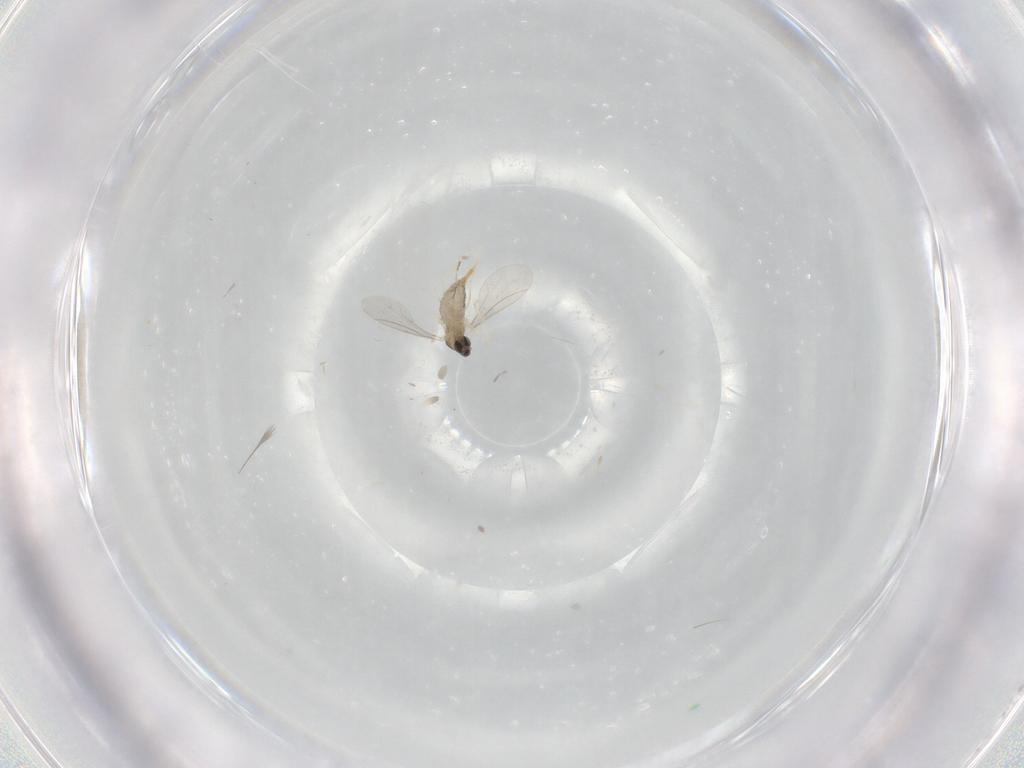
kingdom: Animalia
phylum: Arthropoda
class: Insecta
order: Diptera
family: Cecidomyiidae
